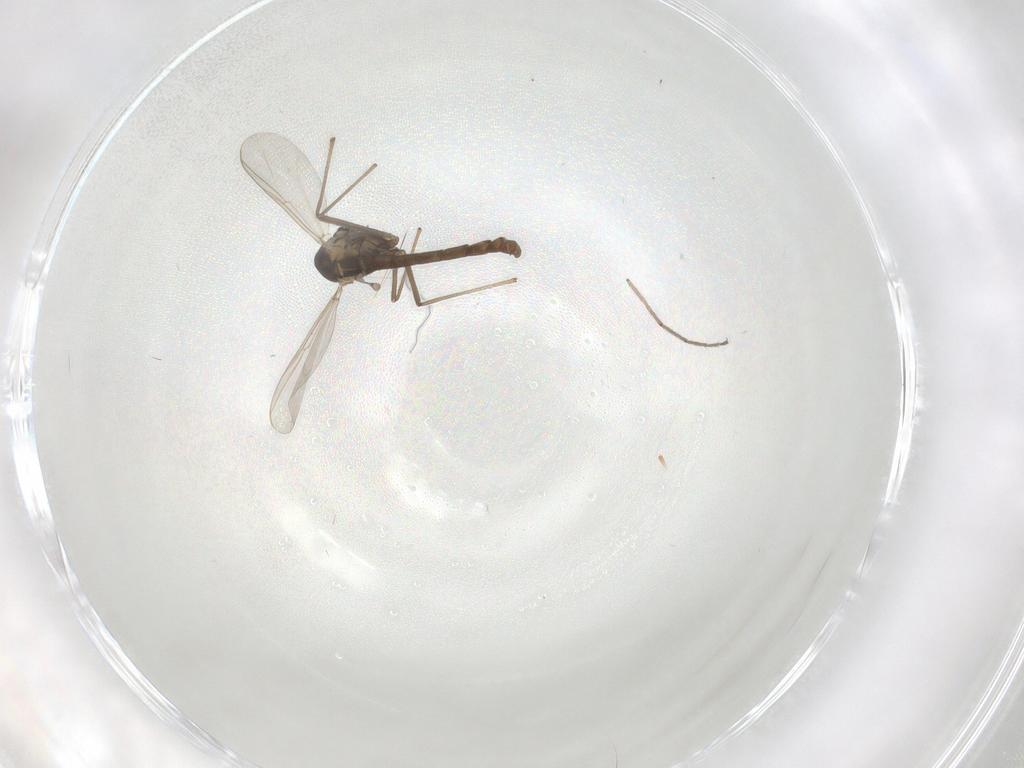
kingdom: Animalia
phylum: Arthropoda
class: Insecta
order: Diptera
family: Chironomidae
